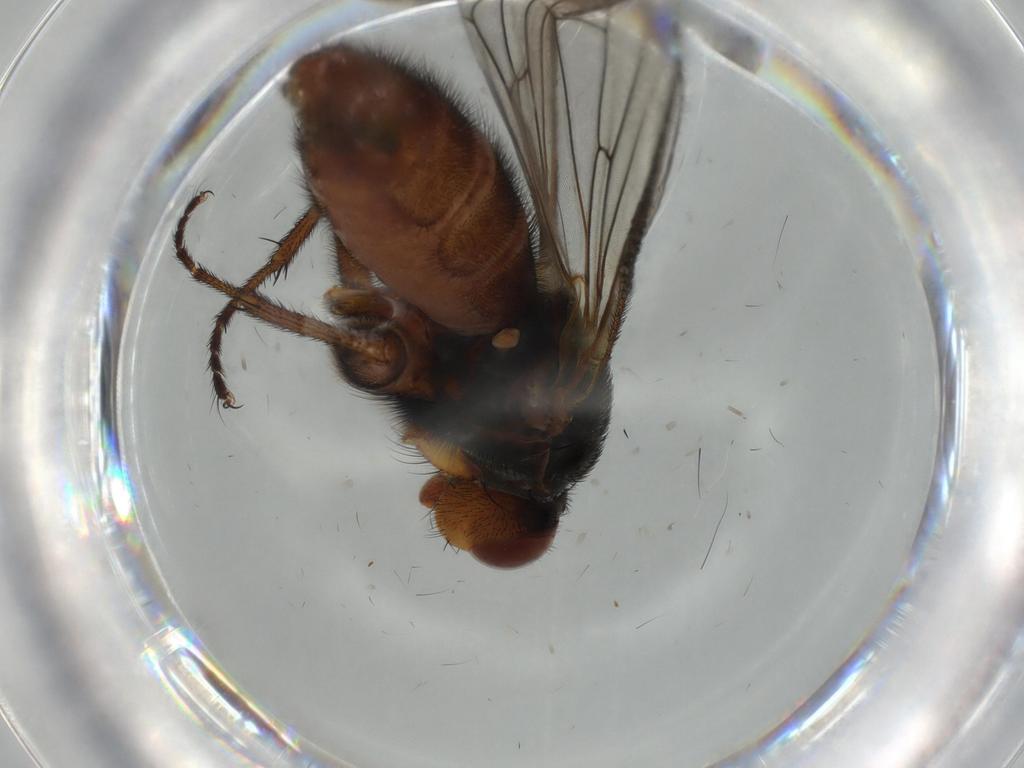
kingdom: Animalia
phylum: Arthropoda
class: Insecta
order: Diptera
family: Heleomyzidae
